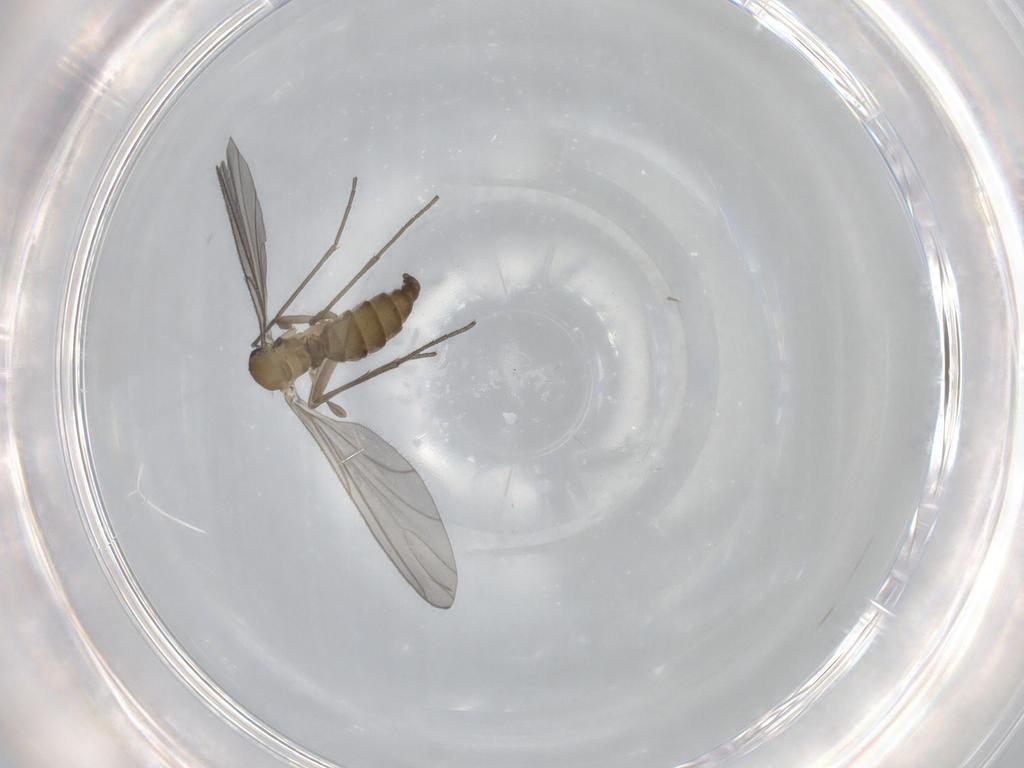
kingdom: Animalia
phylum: Arthropoda
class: Insecta
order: Diptera
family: Sciaridae
